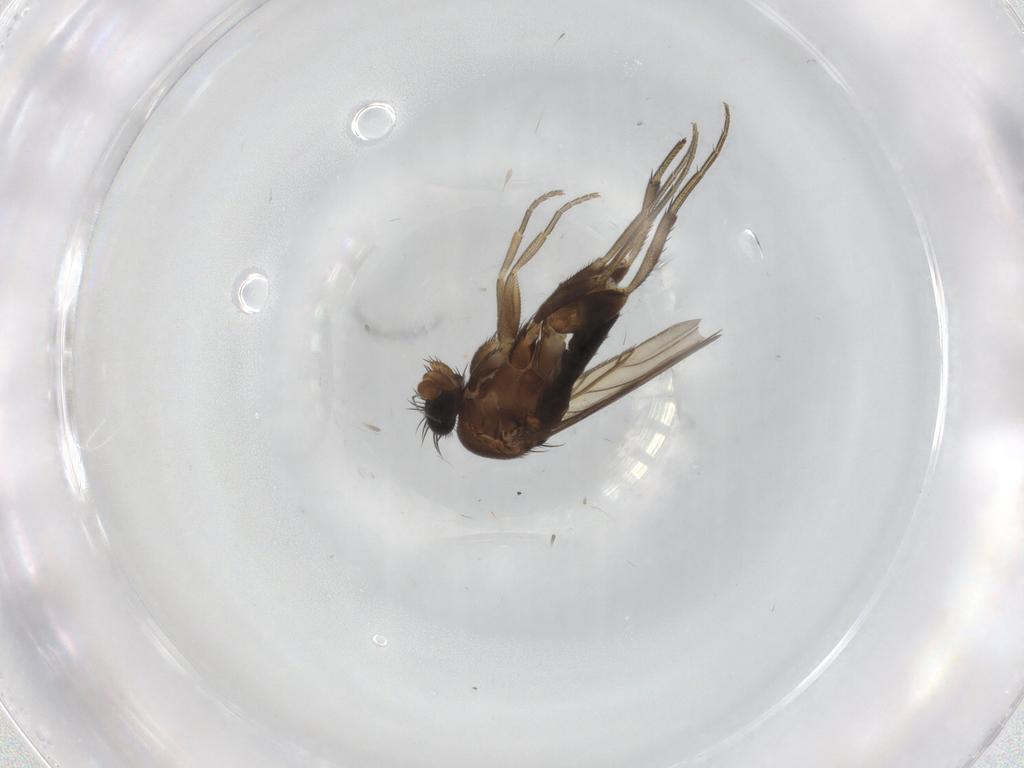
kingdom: Animalia
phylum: Arthropoda
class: Insecta
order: Diptera
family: Phoridae
